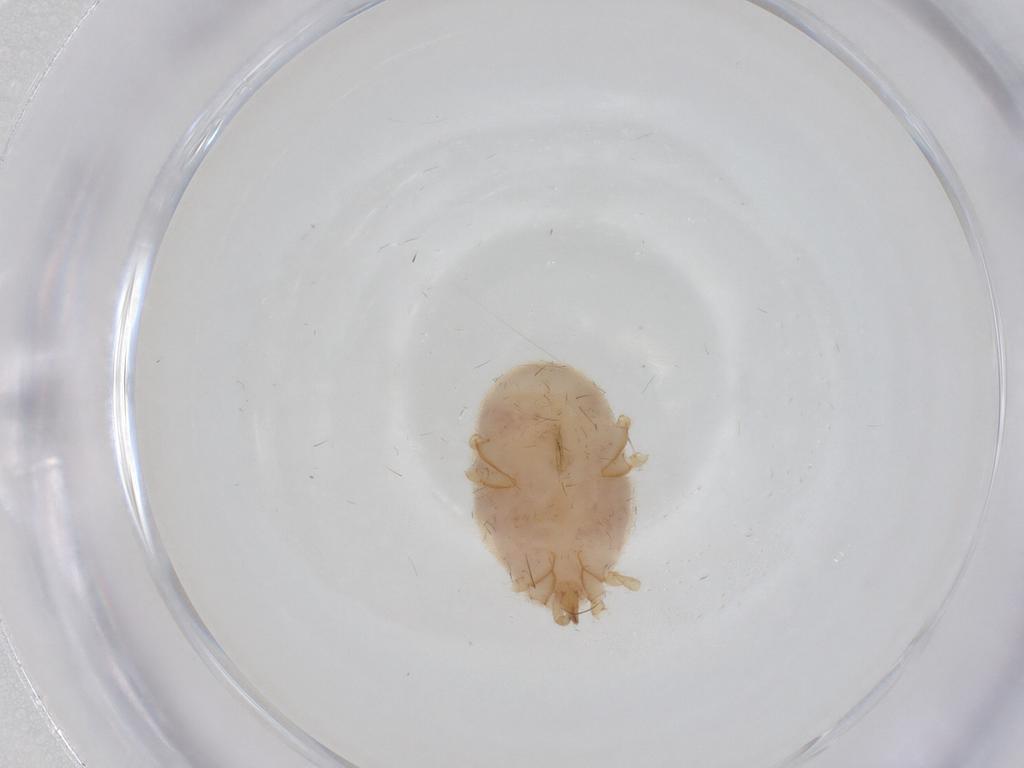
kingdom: Animalia
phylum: Arthropoda
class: Arachnida
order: Trombidiformes
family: Erythraeidae
